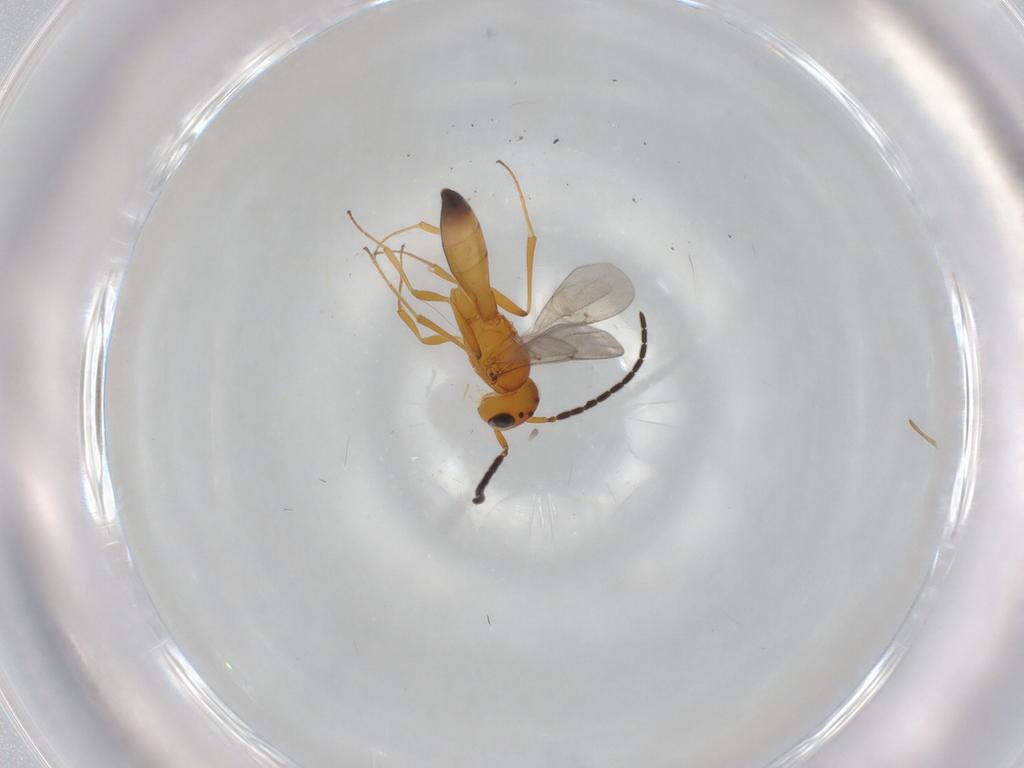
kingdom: Animalia
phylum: Arthropoda
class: Insecta
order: Hymenoptera
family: Scelionidae
